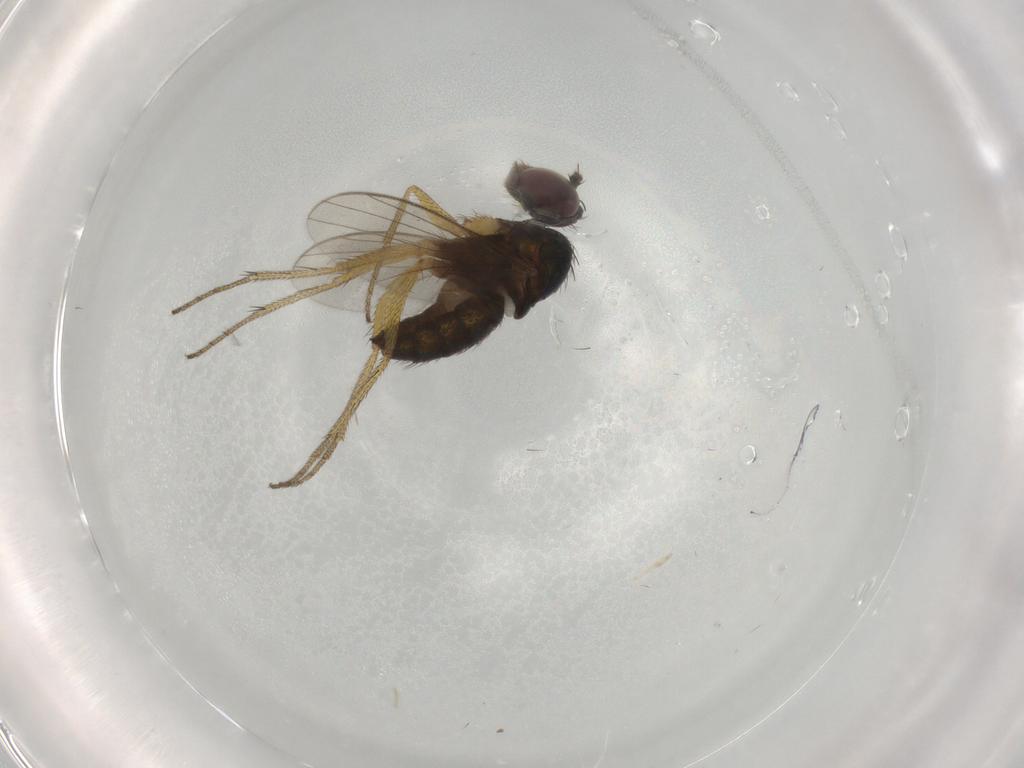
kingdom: Animalia
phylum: Arthropoda
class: Insecta
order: Diptera
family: Dolichopodidae
